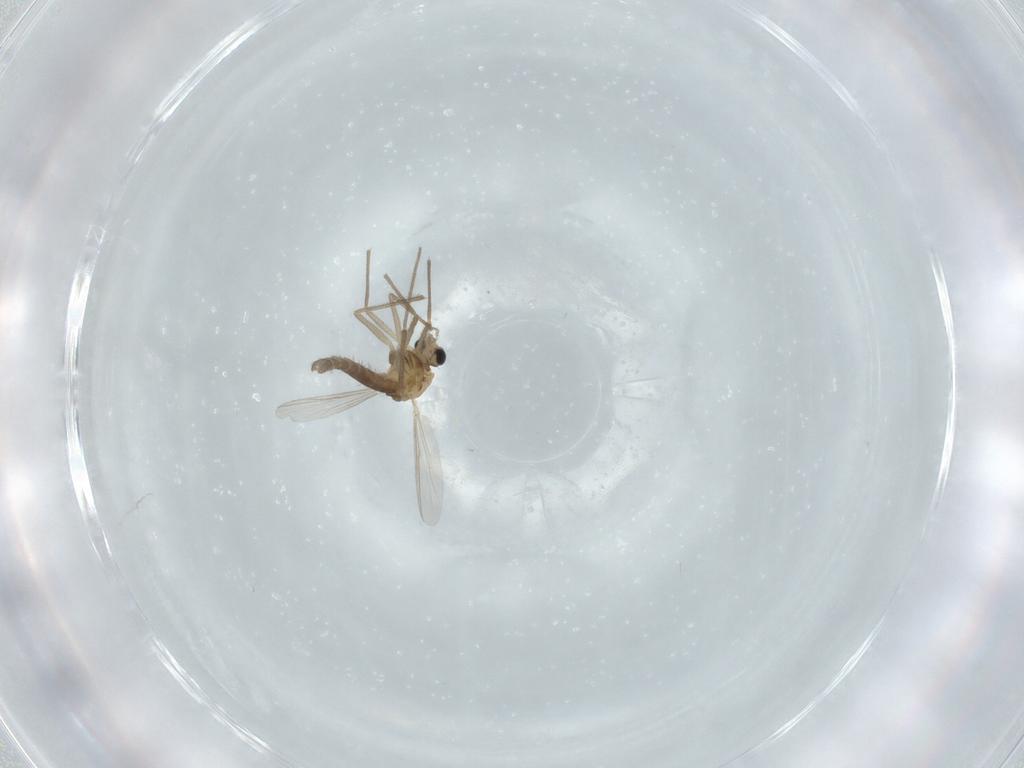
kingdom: Animalia
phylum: Arthropoda
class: Insecta
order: Diptera
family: Chironomidae
